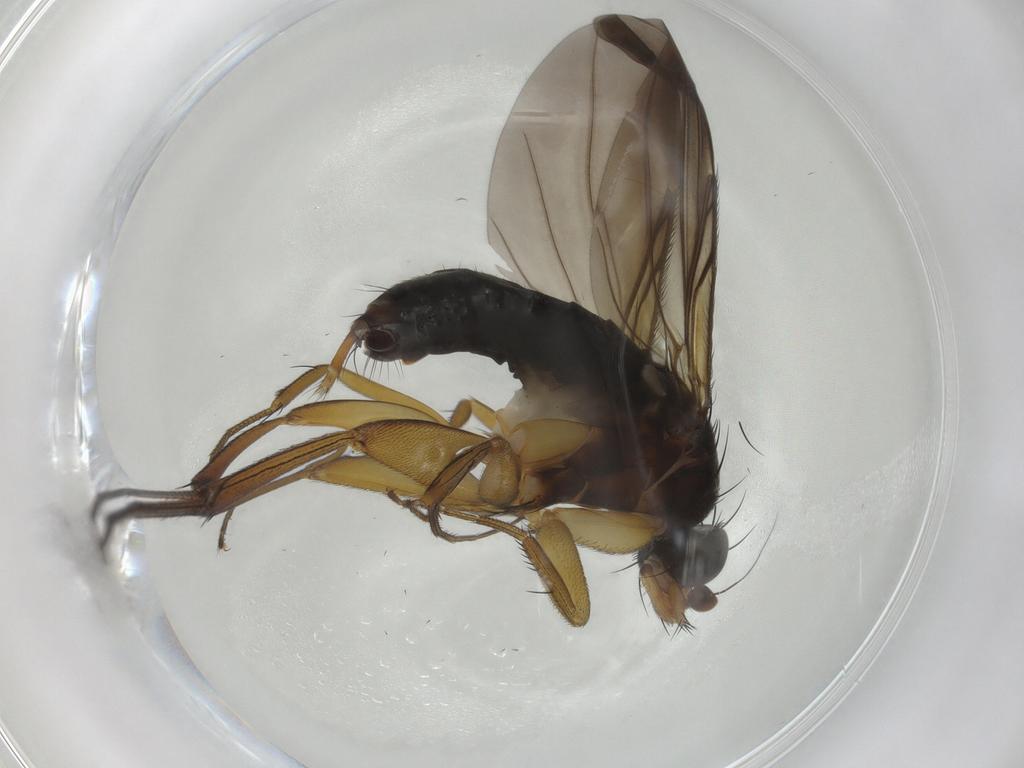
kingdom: Animalia
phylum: Arthropoda
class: Insecta
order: Diptera
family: Phoridae
